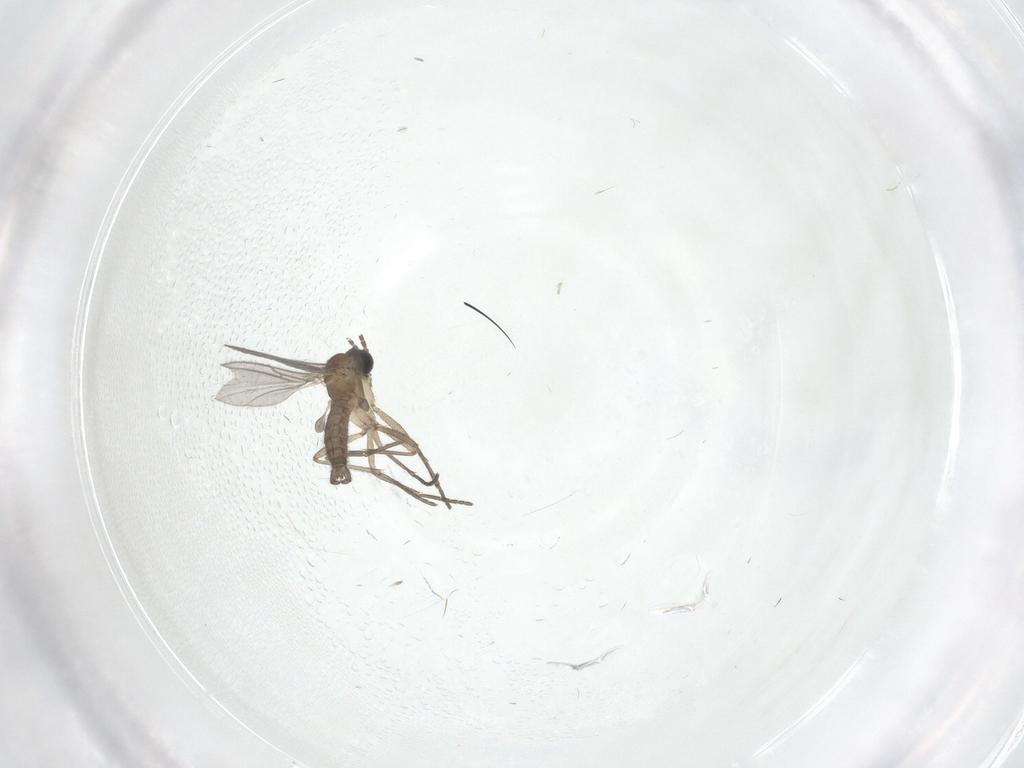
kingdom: Animalia
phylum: Arthropoda
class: Insecta
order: Diptera
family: Sciaridae
